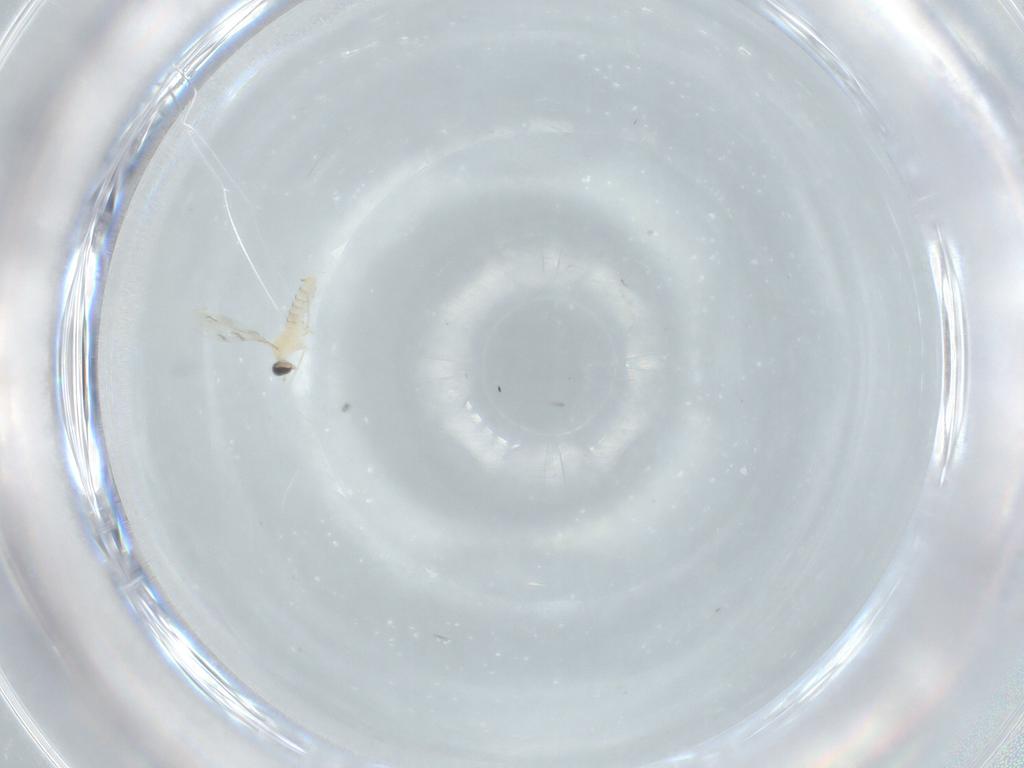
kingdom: Animalia
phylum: Arthropoda
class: Insecta
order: Diptera
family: Cecidomyiidae
